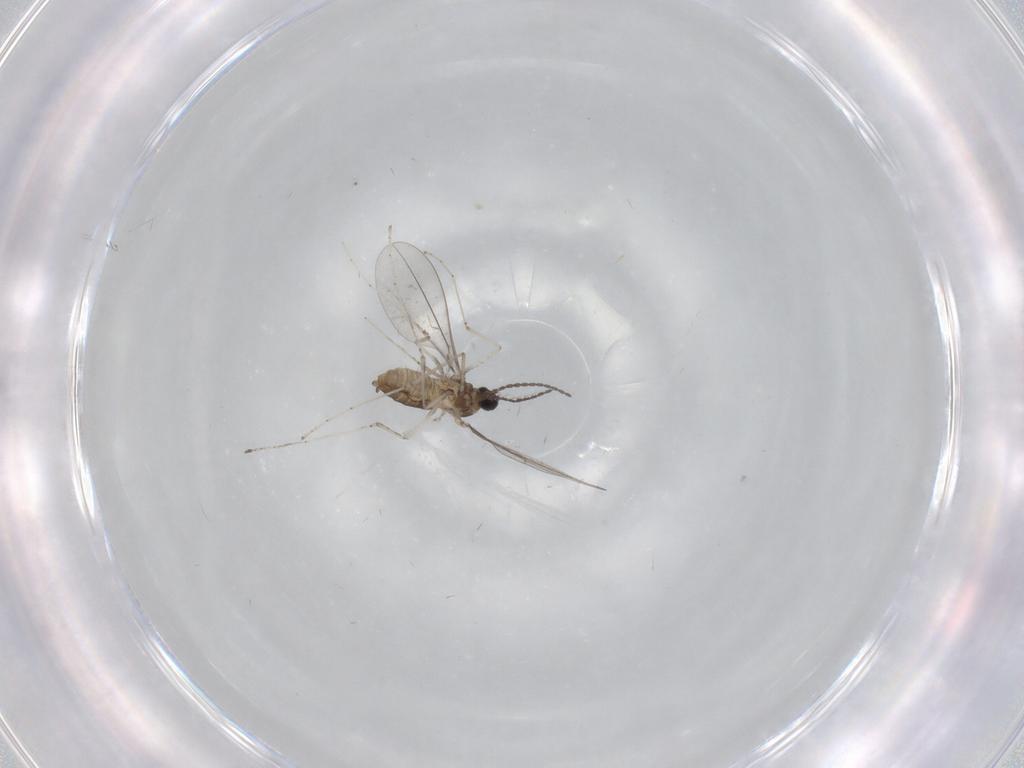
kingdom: Animalia
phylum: Arthropoda
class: Insecta
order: Diptera
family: Cecidomyiidae
